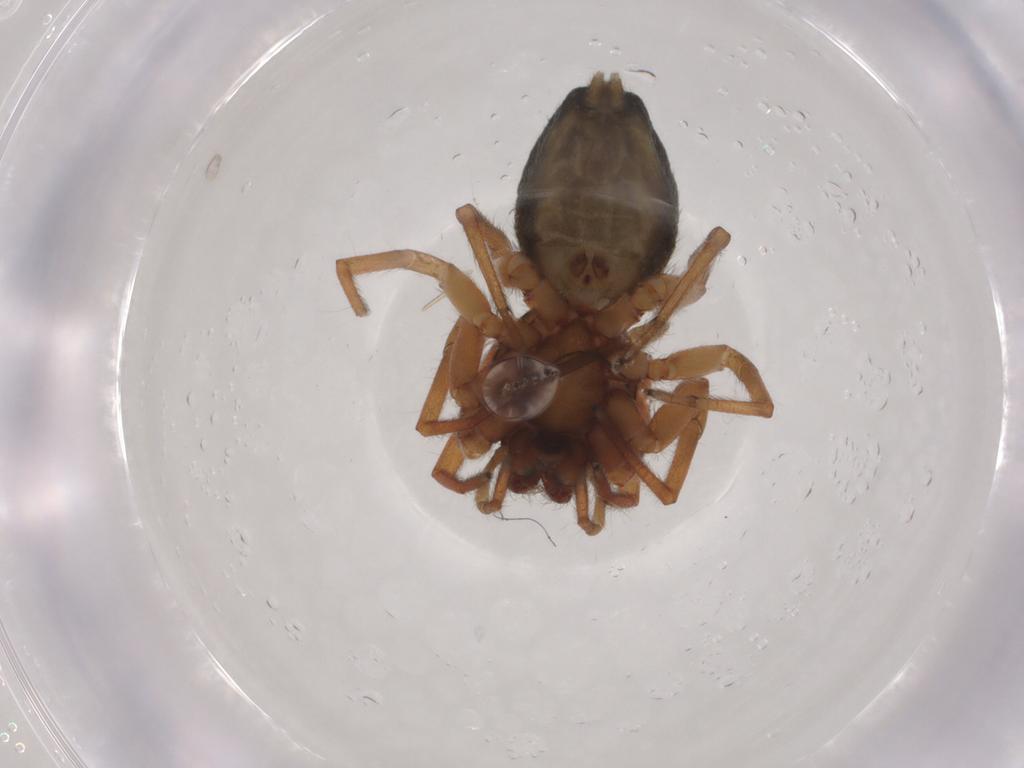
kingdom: Animalia
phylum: Arthropoda
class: Arachnida
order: Araneae
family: Trachelidae
